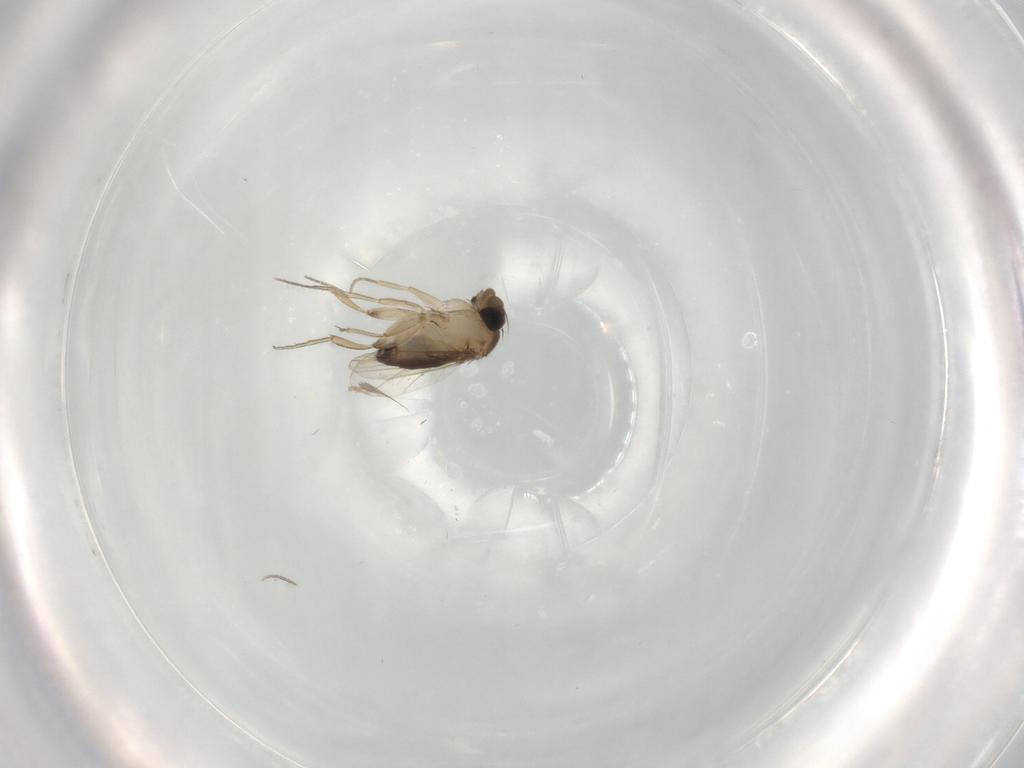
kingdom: Animalia
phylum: Arthropoda
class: Insecta
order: Diptera
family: Phoridae
